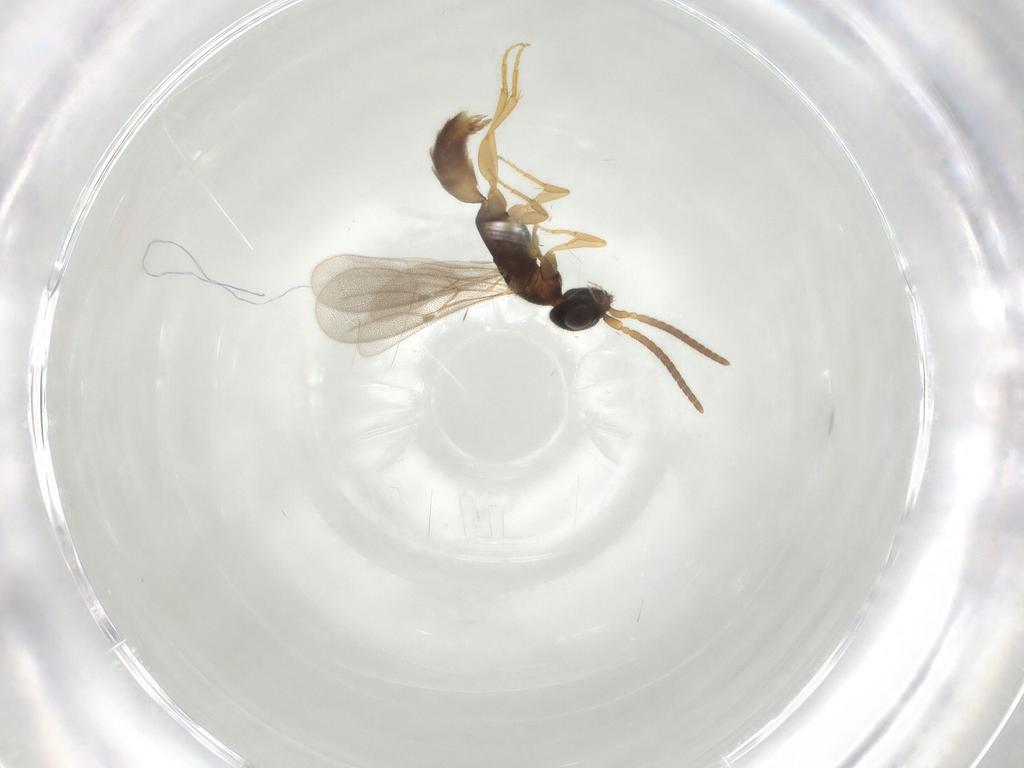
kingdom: Animalia
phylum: Arthropoda
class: Insecta
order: Hymenoptera
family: Bethylidae
